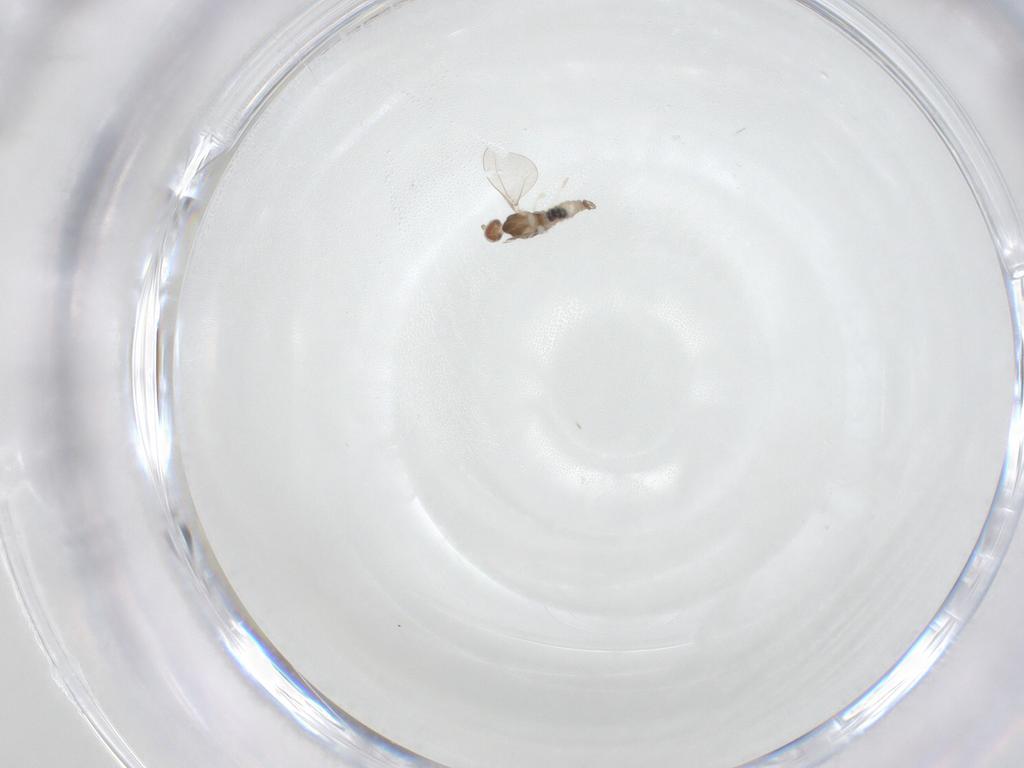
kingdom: Animalia
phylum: Arthropoda
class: Insecta
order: Diptera
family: Cecidomyiidae
